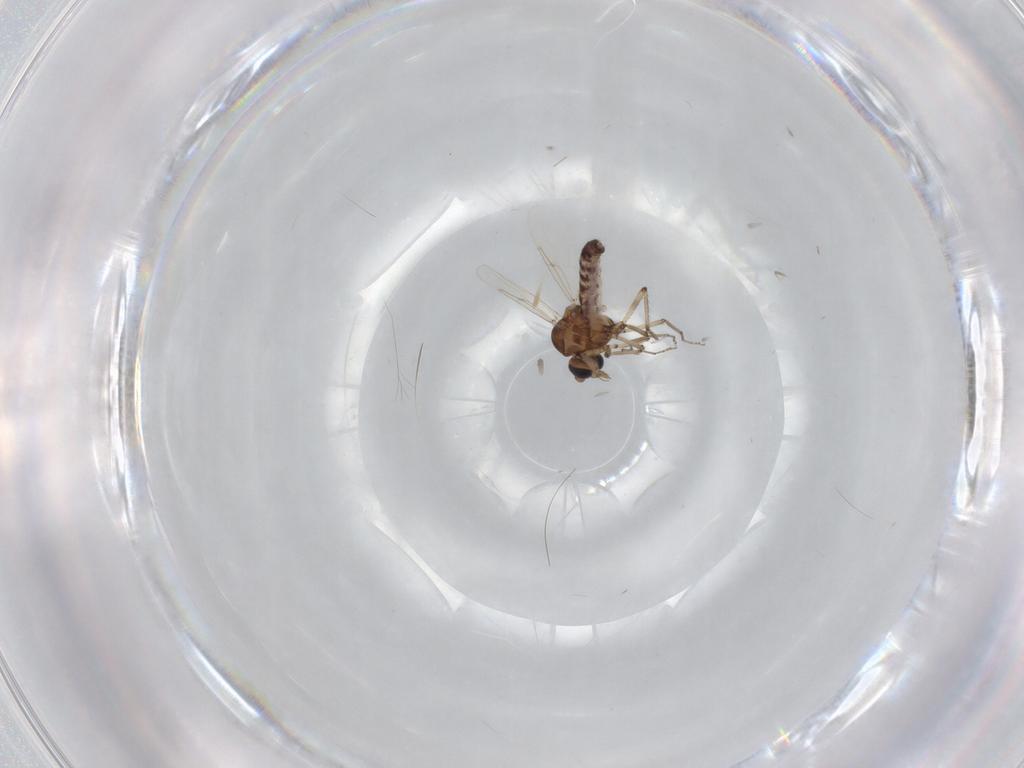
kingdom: Animalia
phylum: Arthropoda
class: Insecta
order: Diptera
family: Ceratopogonidae
